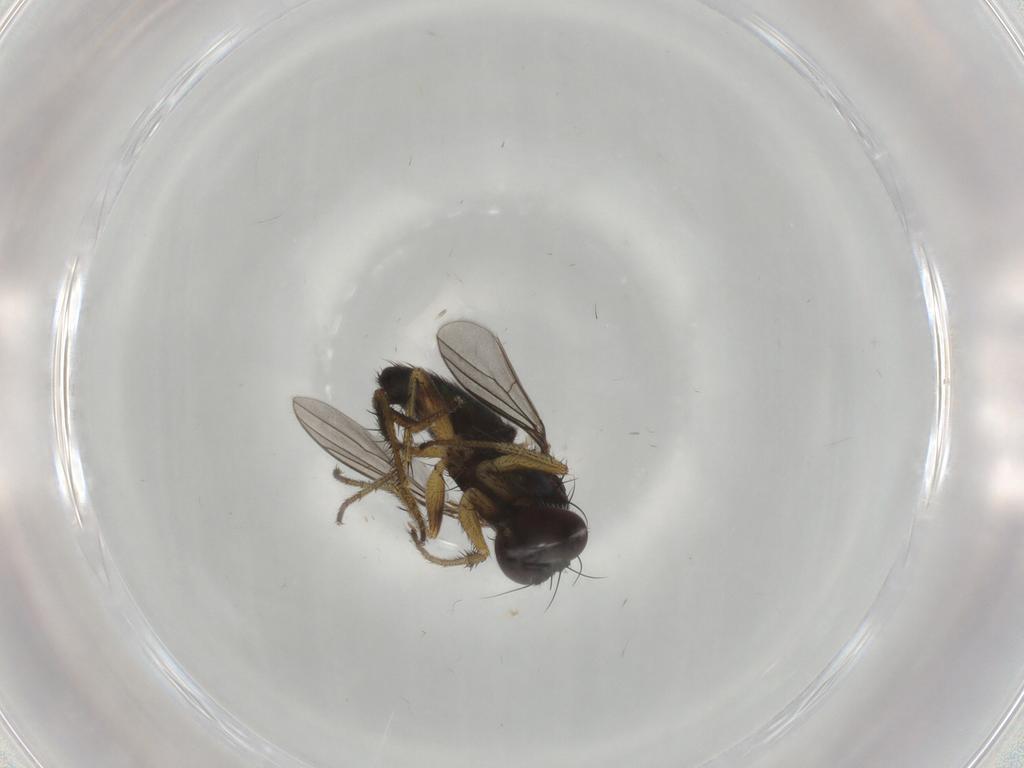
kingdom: Animalia
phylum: Arthropoda
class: Insecta
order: Diptera
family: Dolichopodidae
